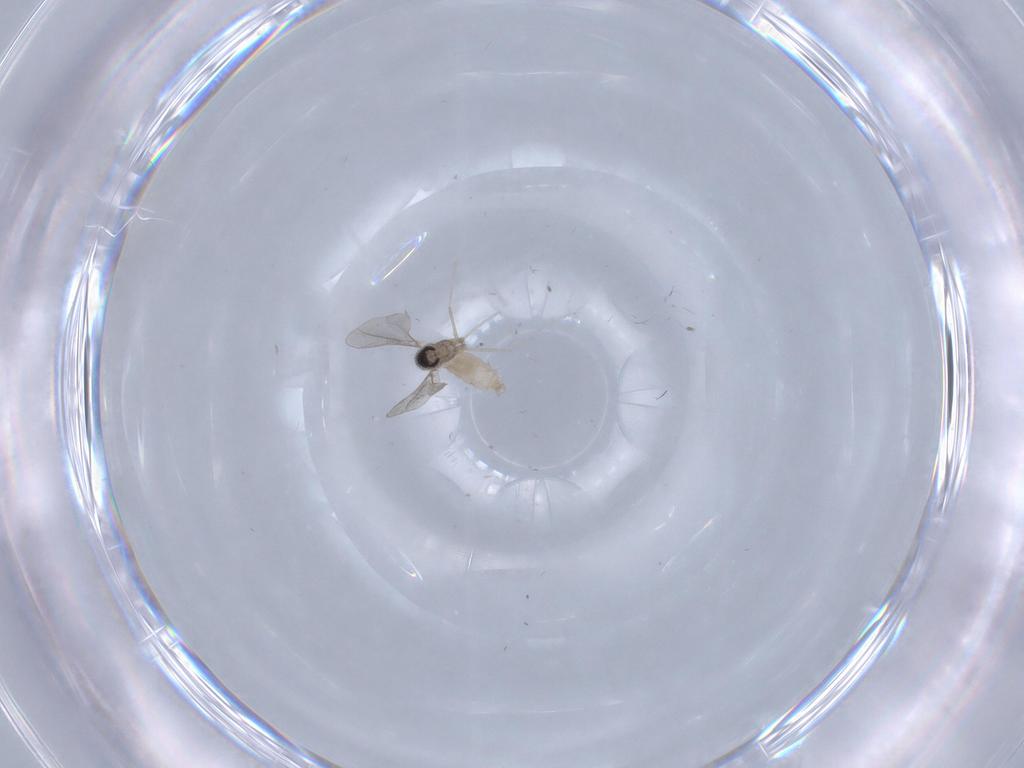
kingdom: Animalia
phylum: Arthropoda
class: Insecta
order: Diptera
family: Cecidomyiidae
